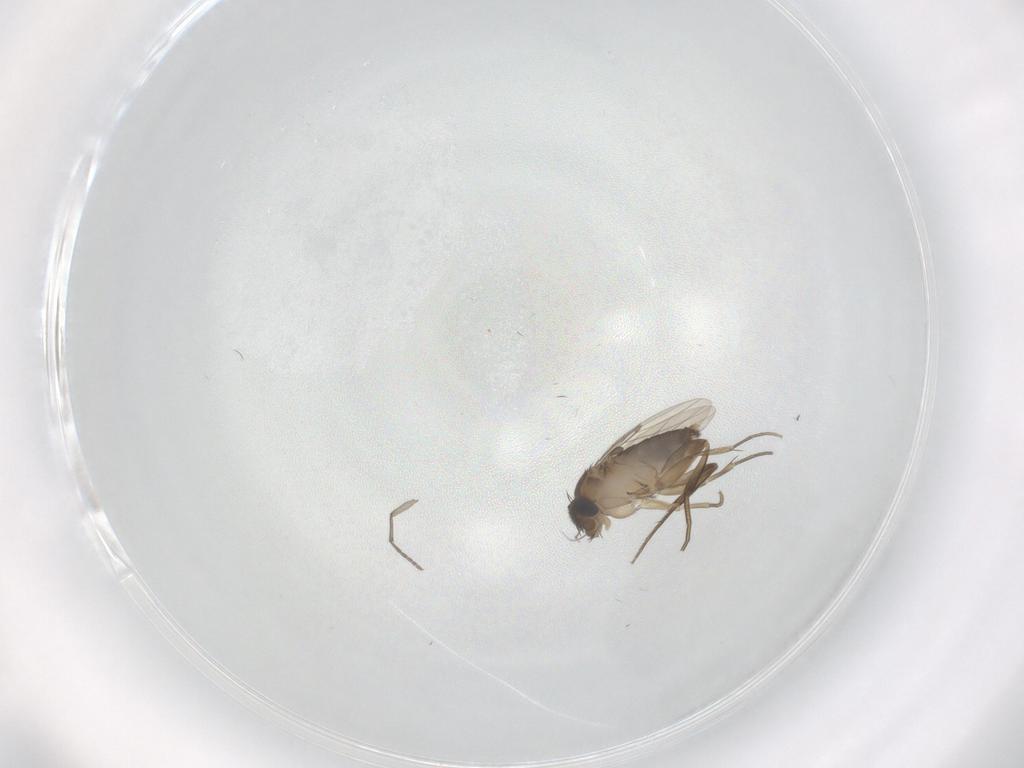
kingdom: Animalia
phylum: Arthropoda
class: Insecta
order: Diptera
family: Phoridae
